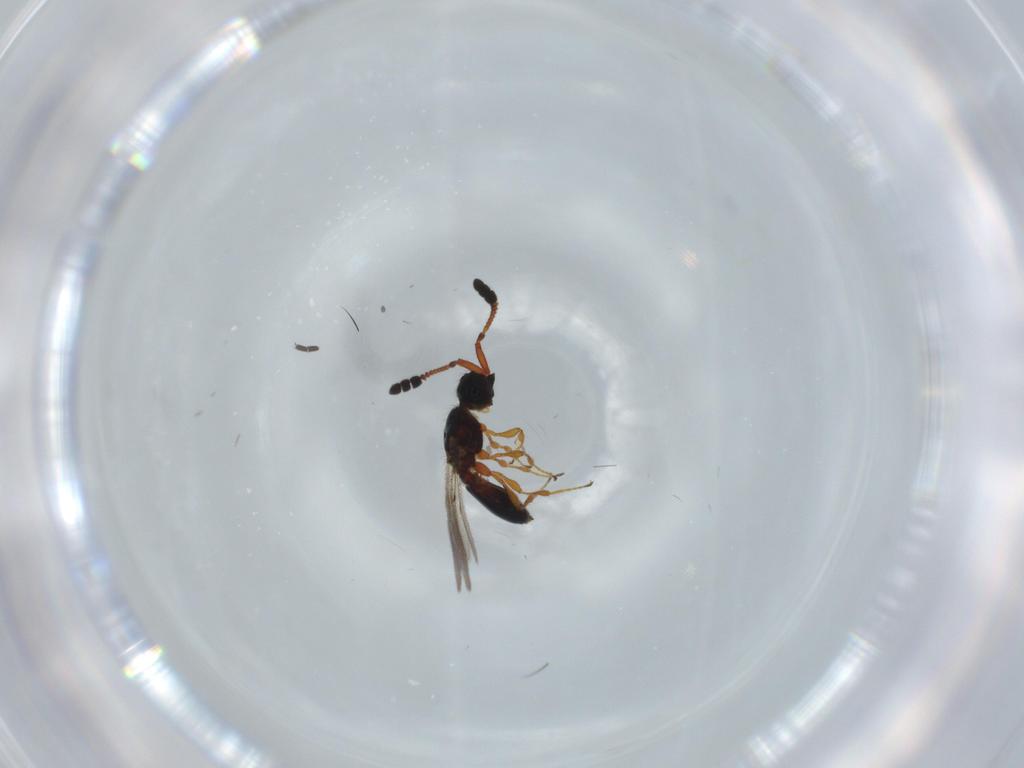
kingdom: Animalia
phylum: Arthropoda
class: Insecta
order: Hymenoptera
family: Diapriidae
